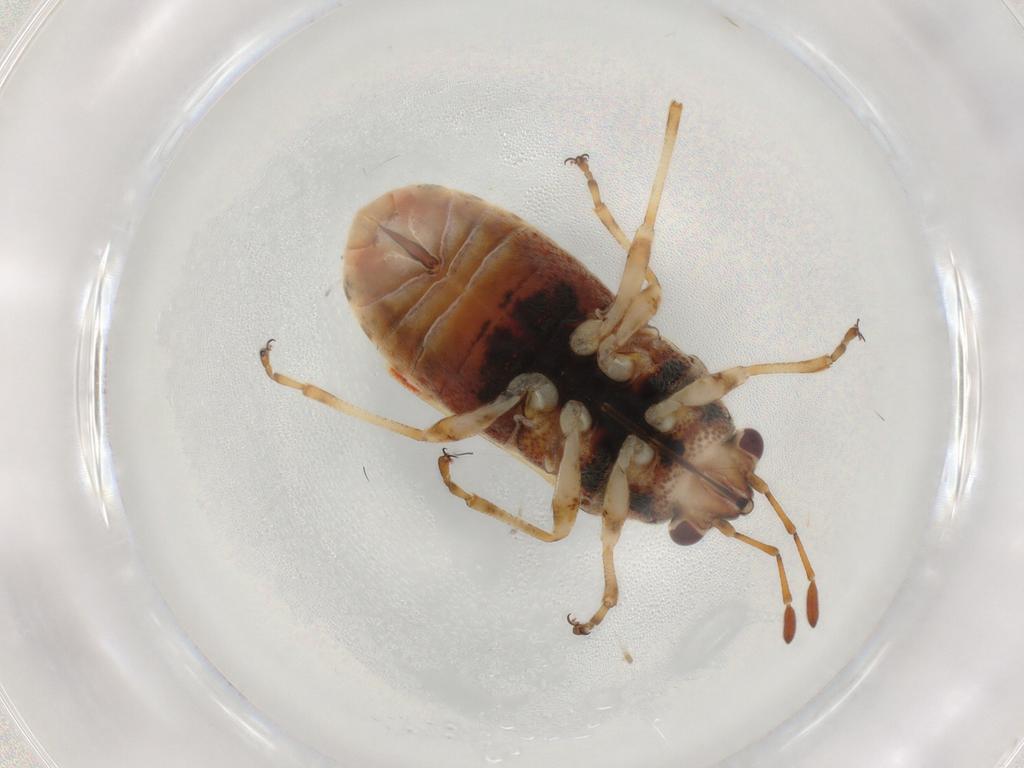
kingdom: Animalia
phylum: Arthropoda
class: Insecta
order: Hemiptera
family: Lygaeidae
